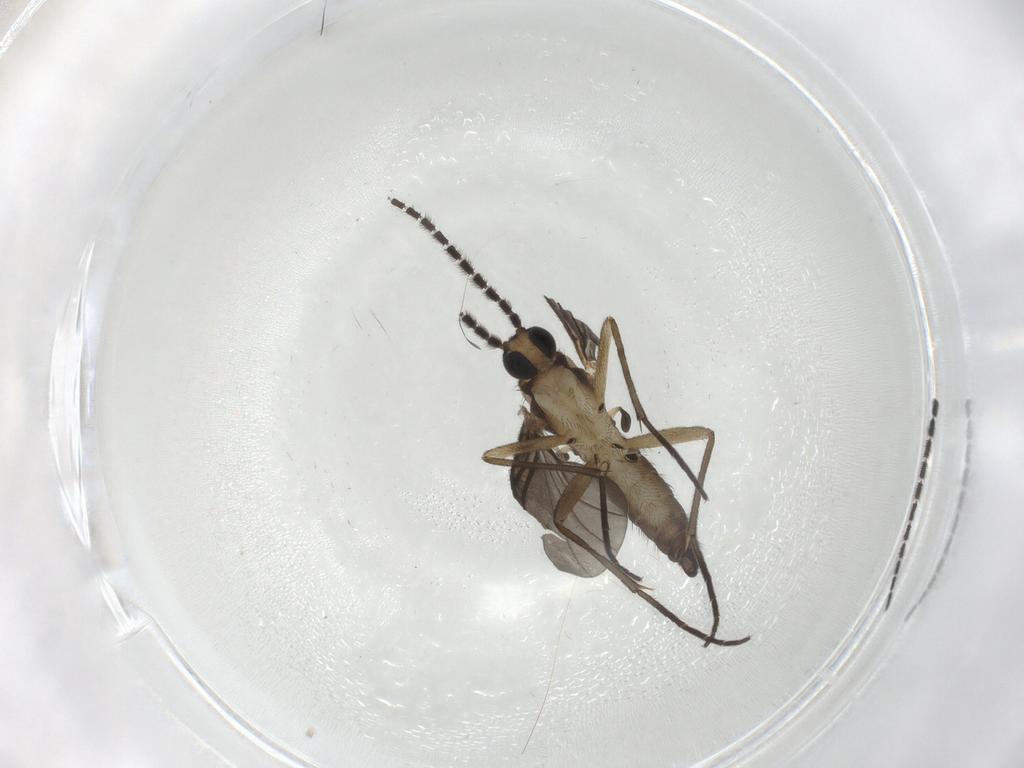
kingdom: Animalia
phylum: Arthropoda
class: Insecta
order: Diptera
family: Sciaridae
